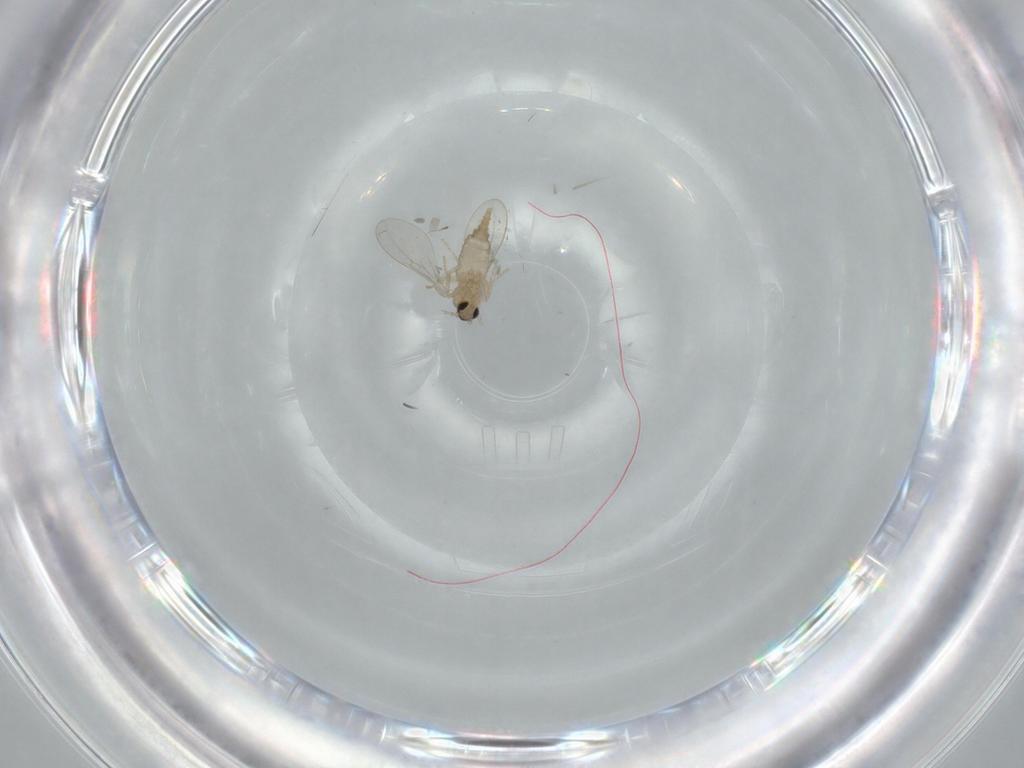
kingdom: Animalia
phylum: Arthropoda
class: Insecta
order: Diptera
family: Cecidomyiidae
